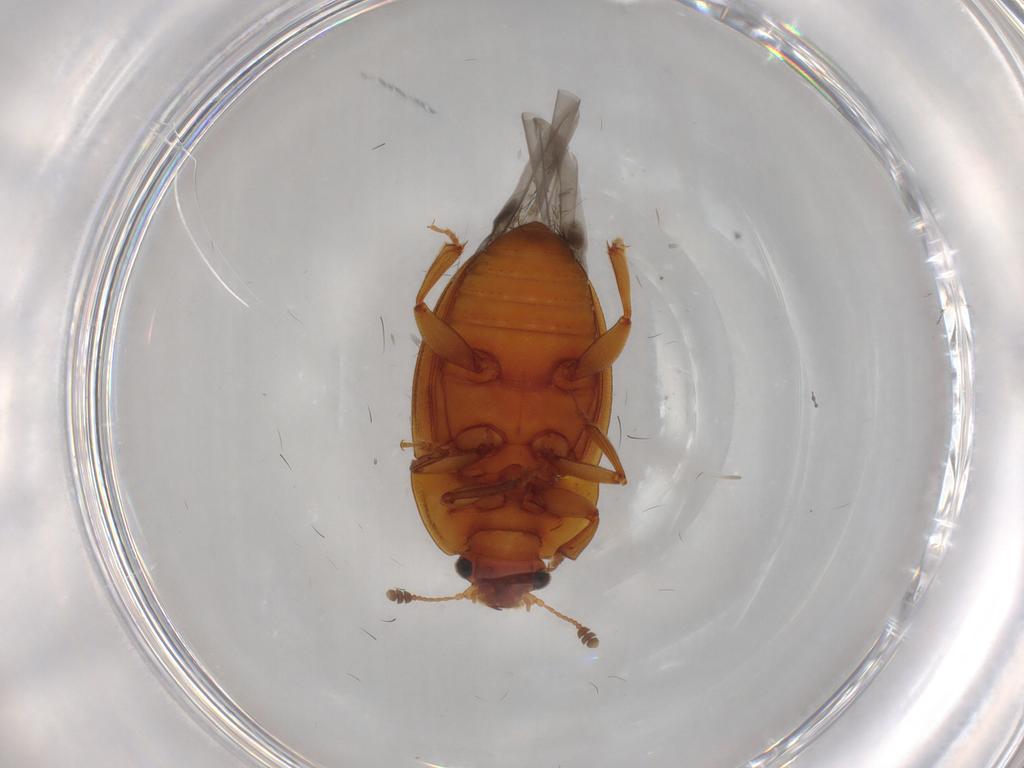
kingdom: Animalia
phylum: Arthropoda
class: Insecta
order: Coleoptera
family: Nitidulidae
